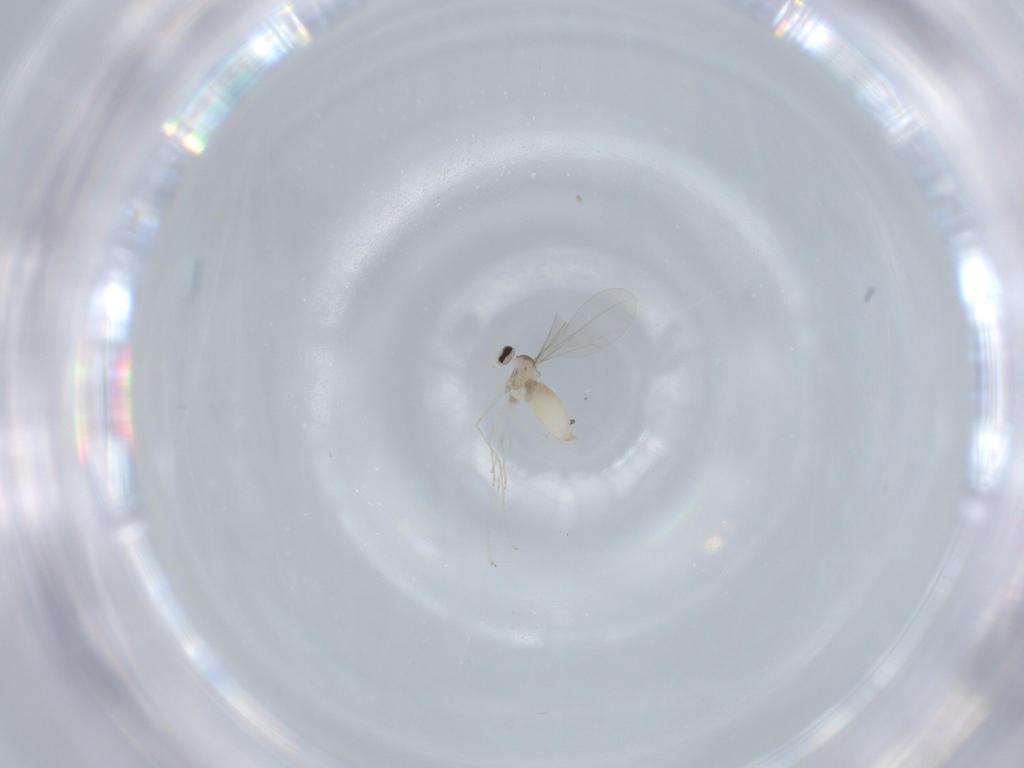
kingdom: Animalia
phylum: Arthropoda
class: Insecta
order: Diptera
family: Cecidomyiidae
